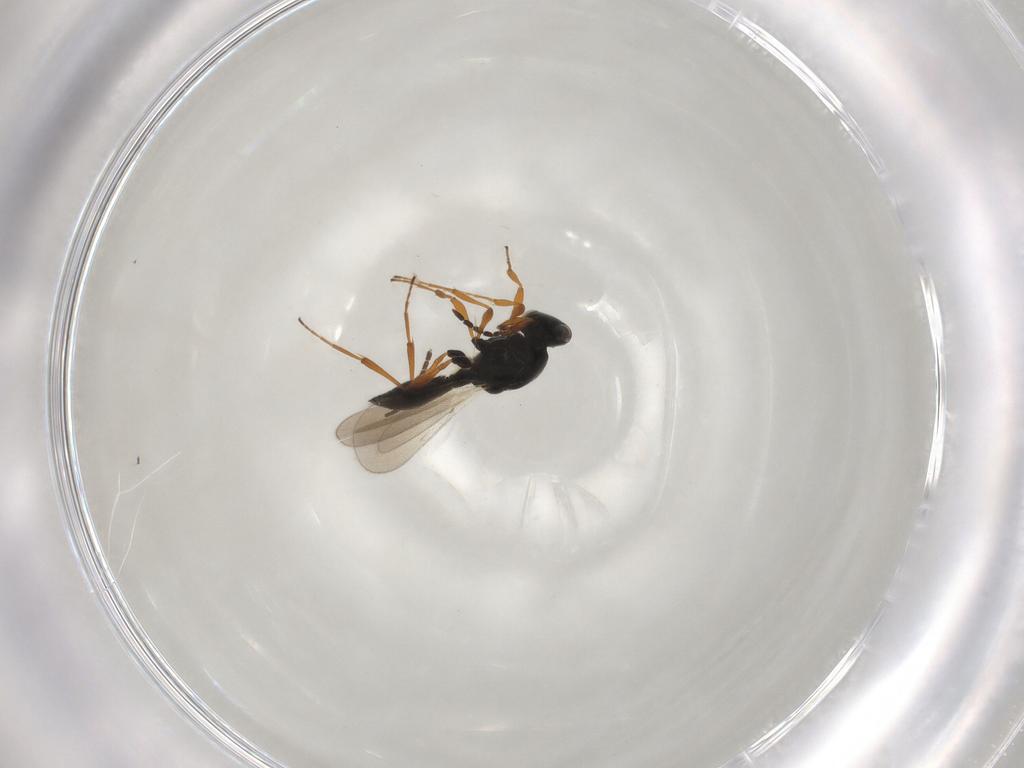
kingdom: Animalia
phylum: Arthropoda
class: Insecta
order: Hymenoptera
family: Platygastridae
